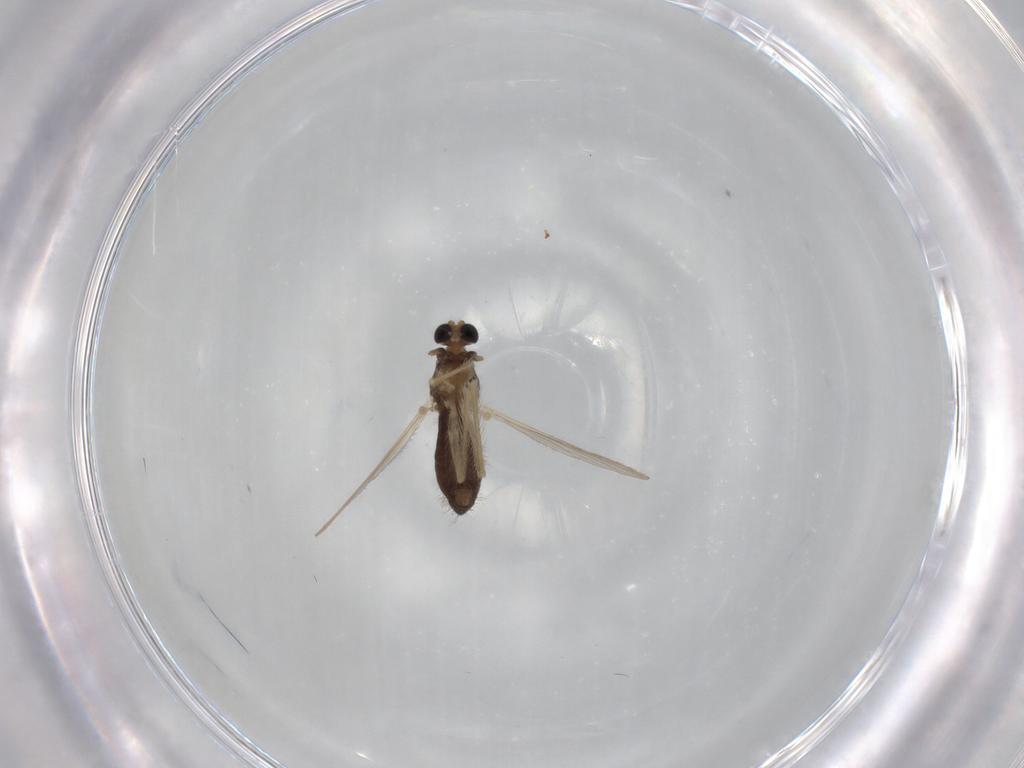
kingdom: Animalia
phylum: Arthropoda
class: Insecta
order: Diptera
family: Chironomidae
